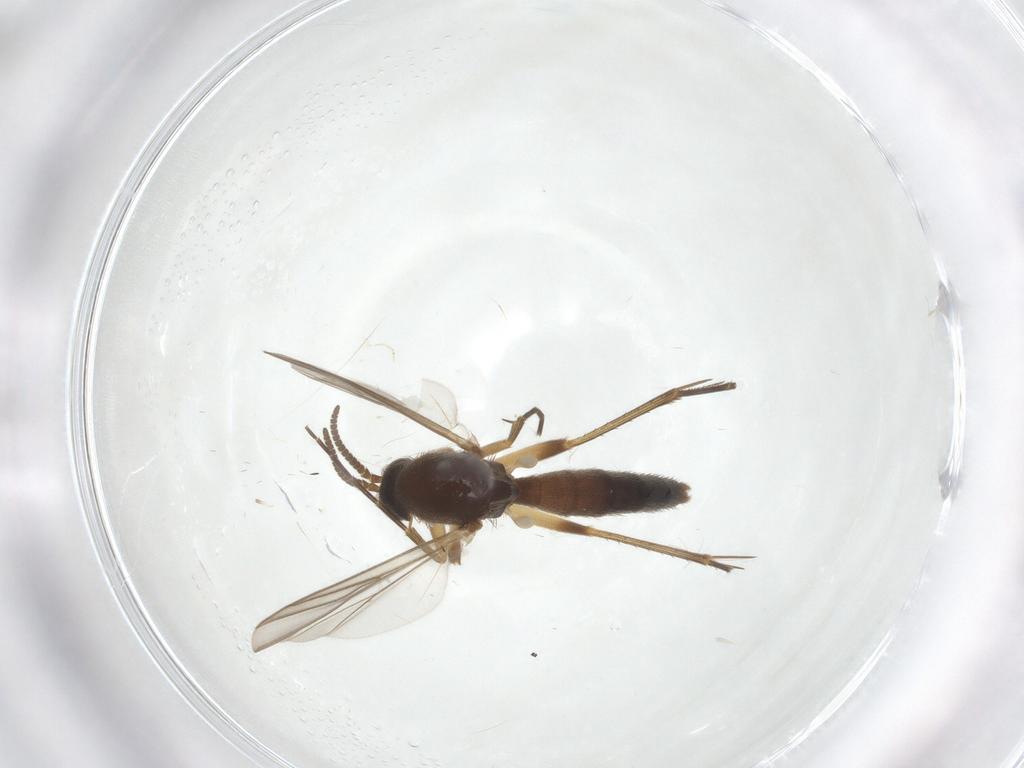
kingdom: Animalia
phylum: Arthropoda
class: Insecta
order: Diptera
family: Mycetophilidae
